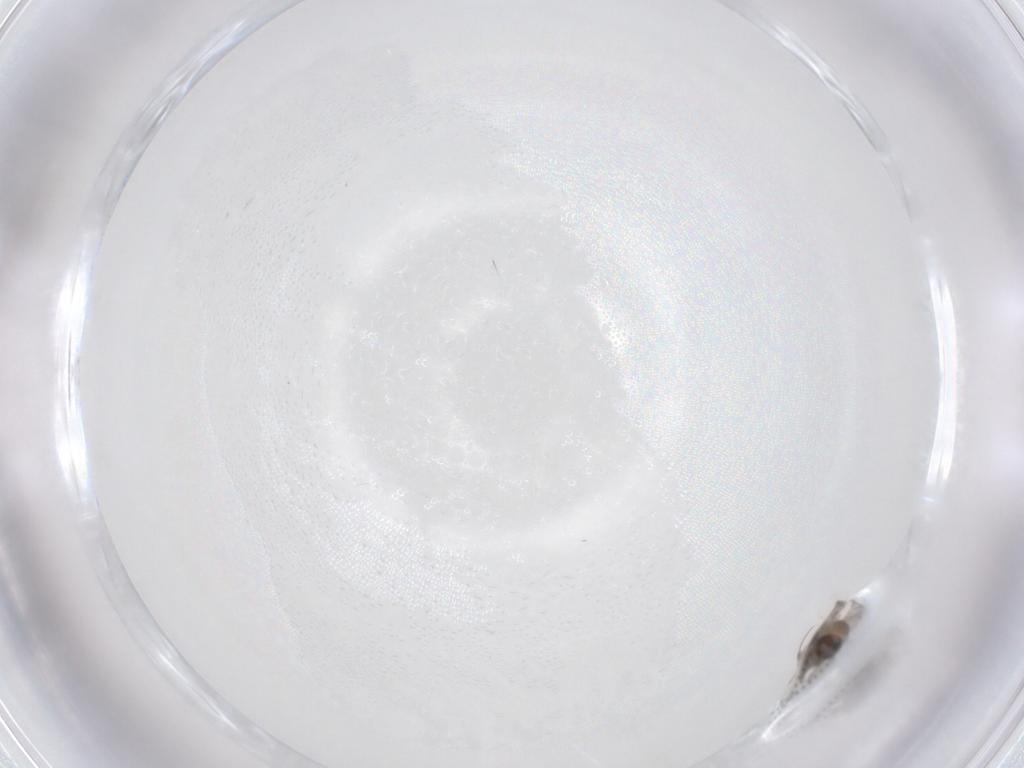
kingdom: Animalia
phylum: Arthropoda
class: Insecta
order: Diptera
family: Psychodidae
